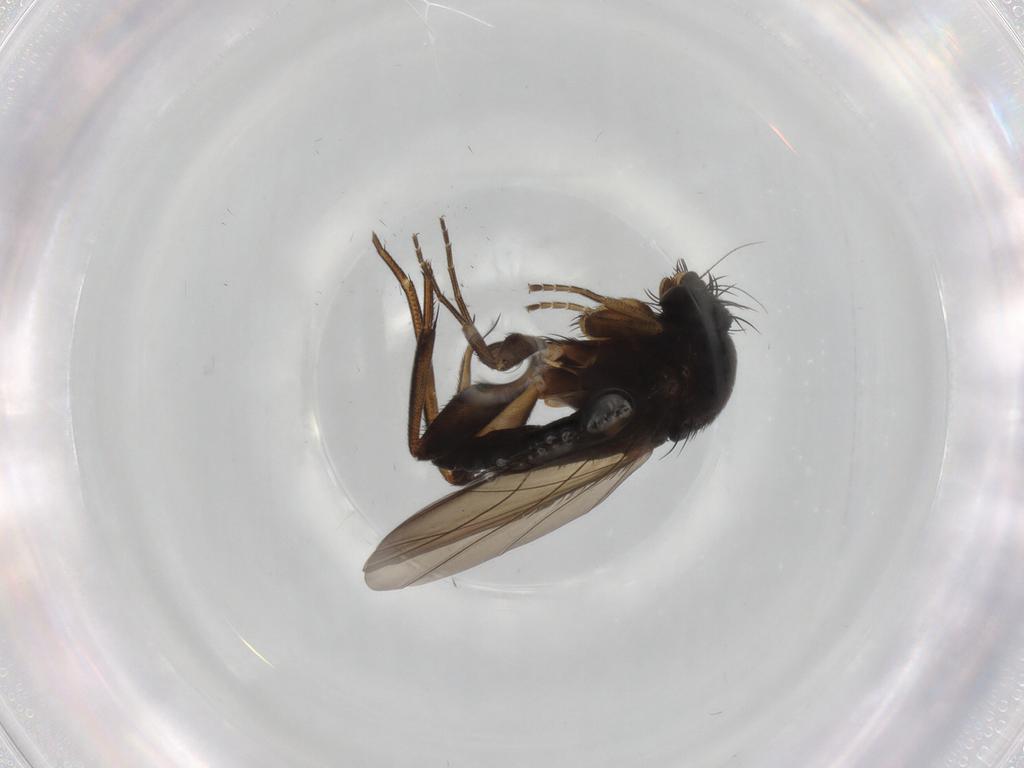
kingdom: Animalia
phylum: Arthropoda
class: Insecta
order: Diptera
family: Phoridae
